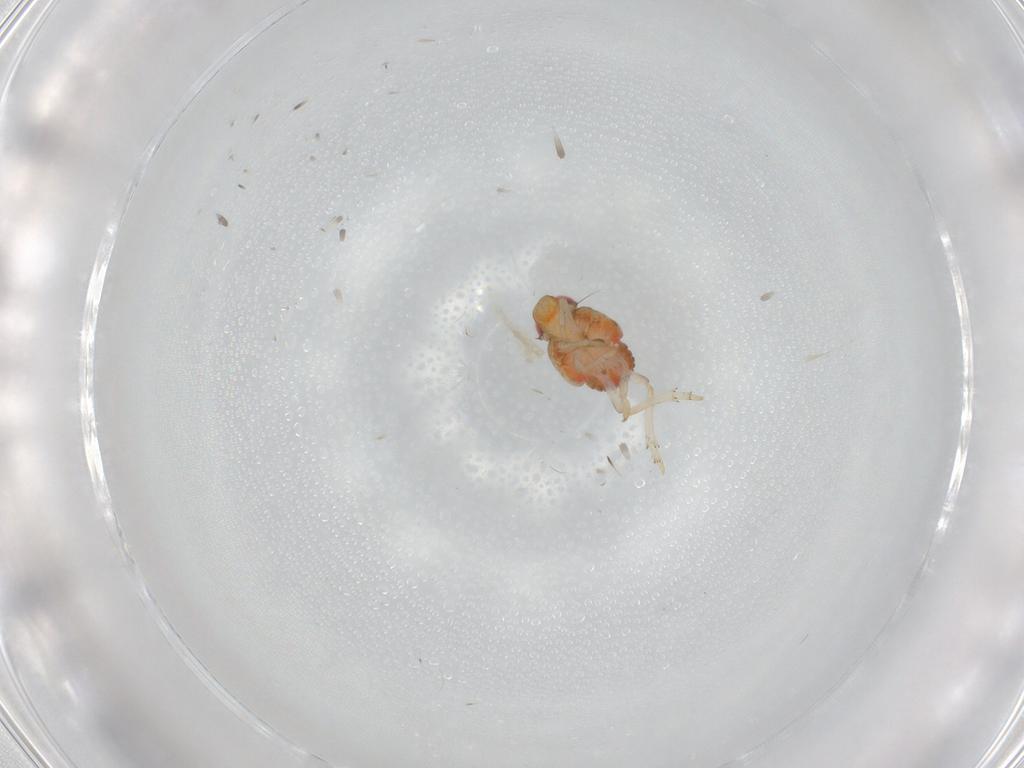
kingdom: Animalia
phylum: Arthropoda
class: Insecta
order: Hemiptera
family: Issidae
